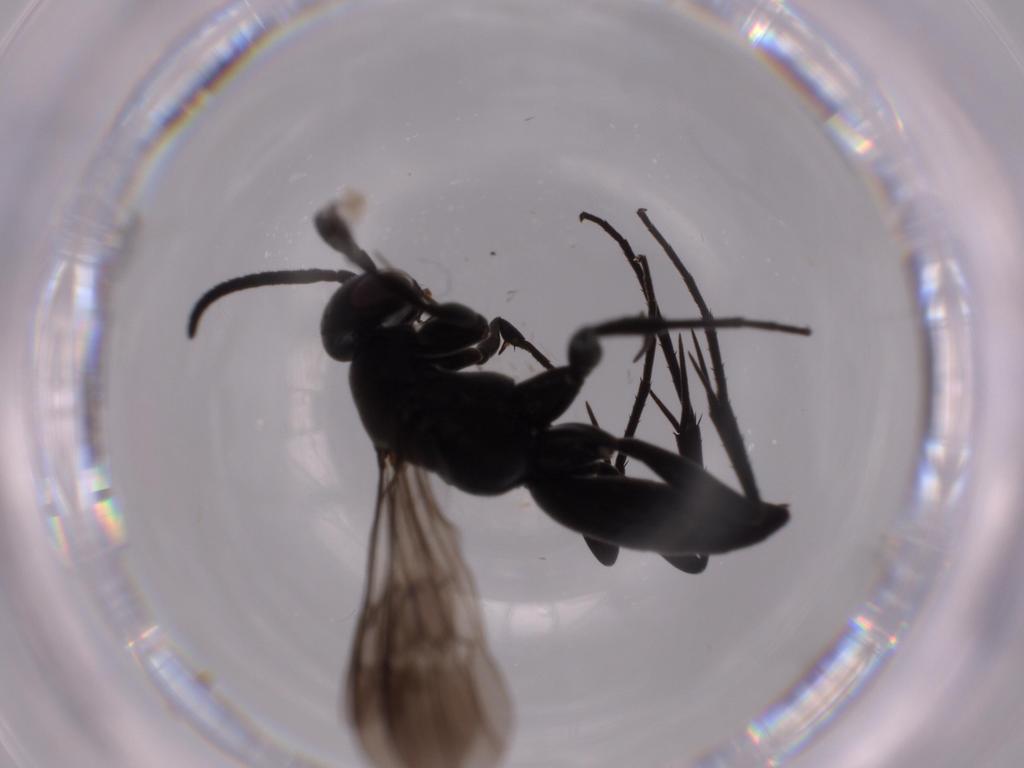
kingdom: Animalia
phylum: Arthropoda
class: Insecta
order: Hymenoptera
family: Pompilidae
